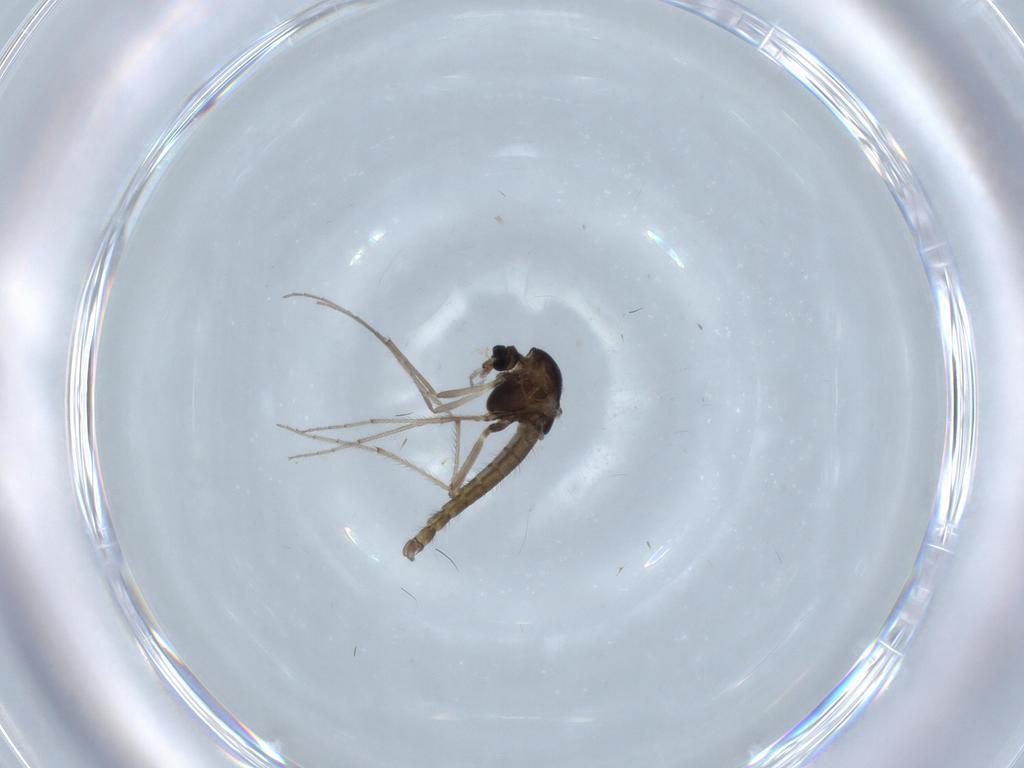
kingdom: Animalia
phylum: Arthropoda
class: Insecta
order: Diptera
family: Chironomidae
